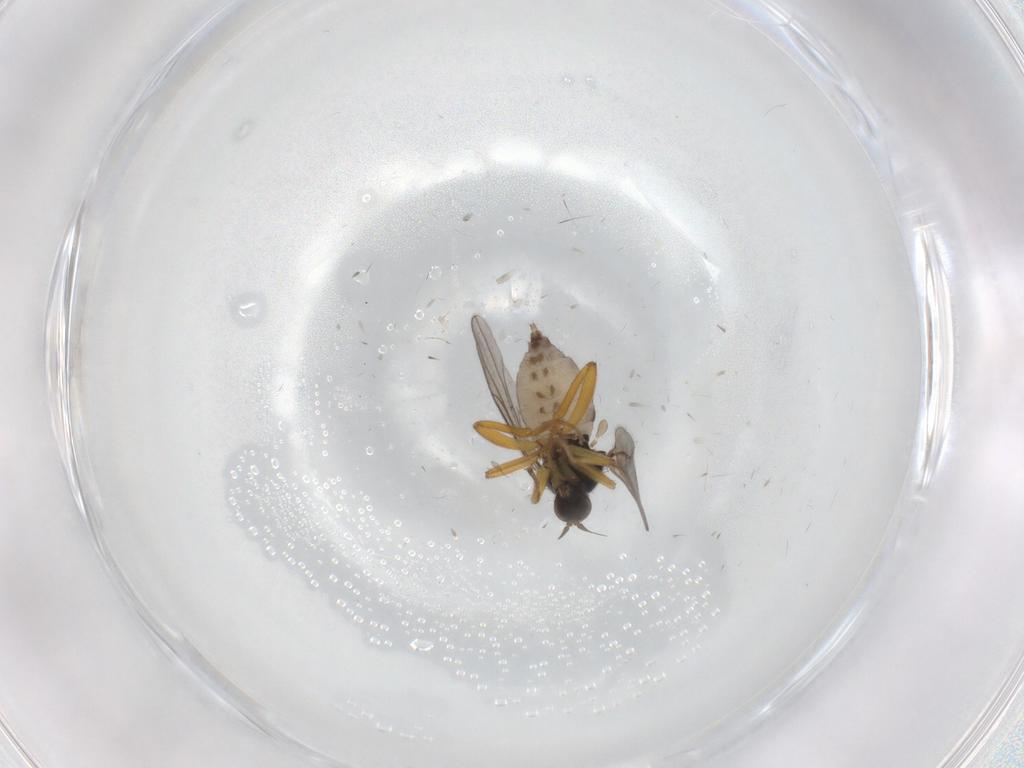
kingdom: Animalia
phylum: Arthropoda
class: Insecta
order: Diptera
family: Hybotidae
